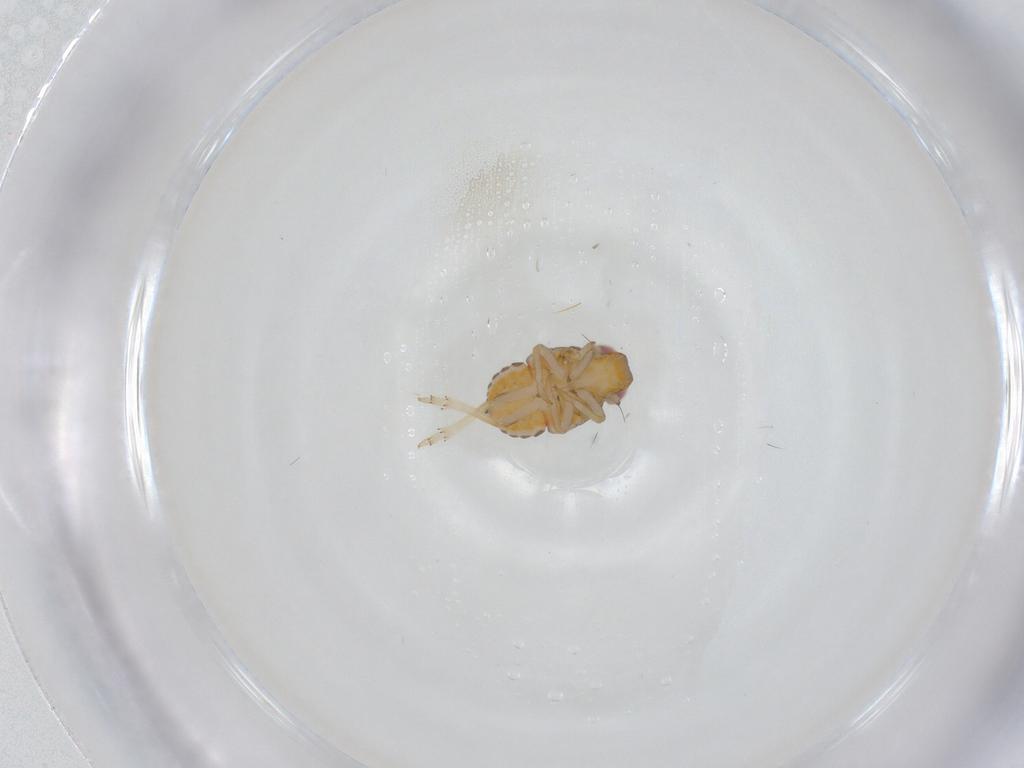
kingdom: Animalia
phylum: Arthropoda
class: Insecta
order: Hemiptera
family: Issidae
